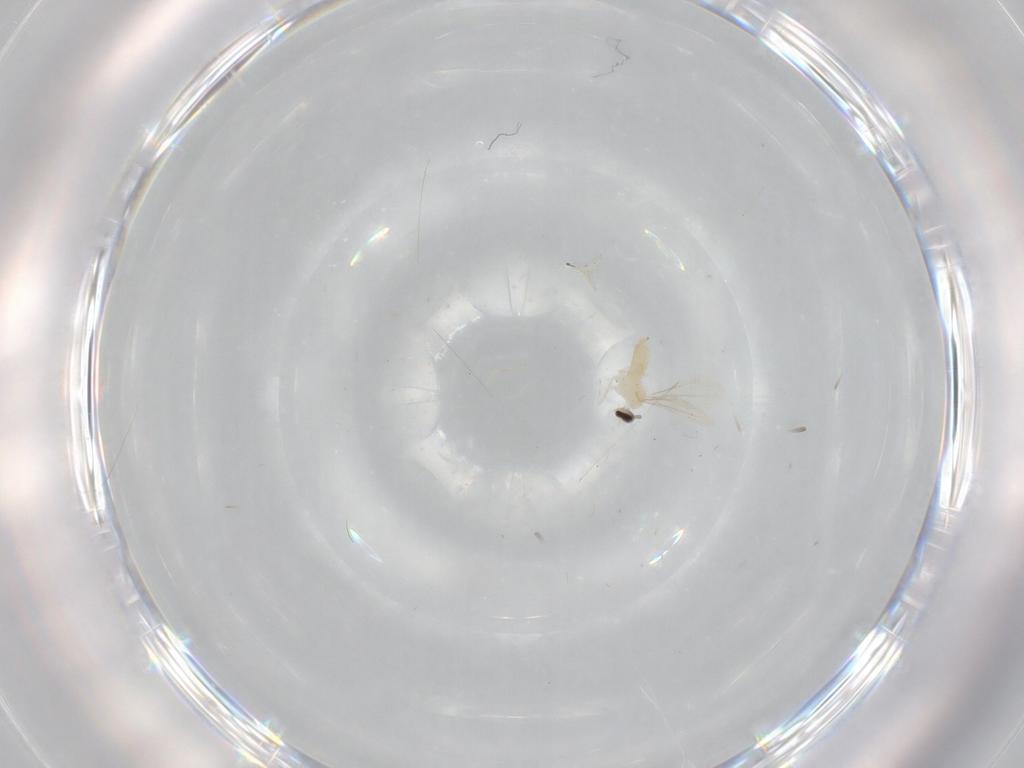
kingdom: Animalia
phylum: Arthropoda
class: Insecta
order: Diptera
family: Cecidomyiidae
